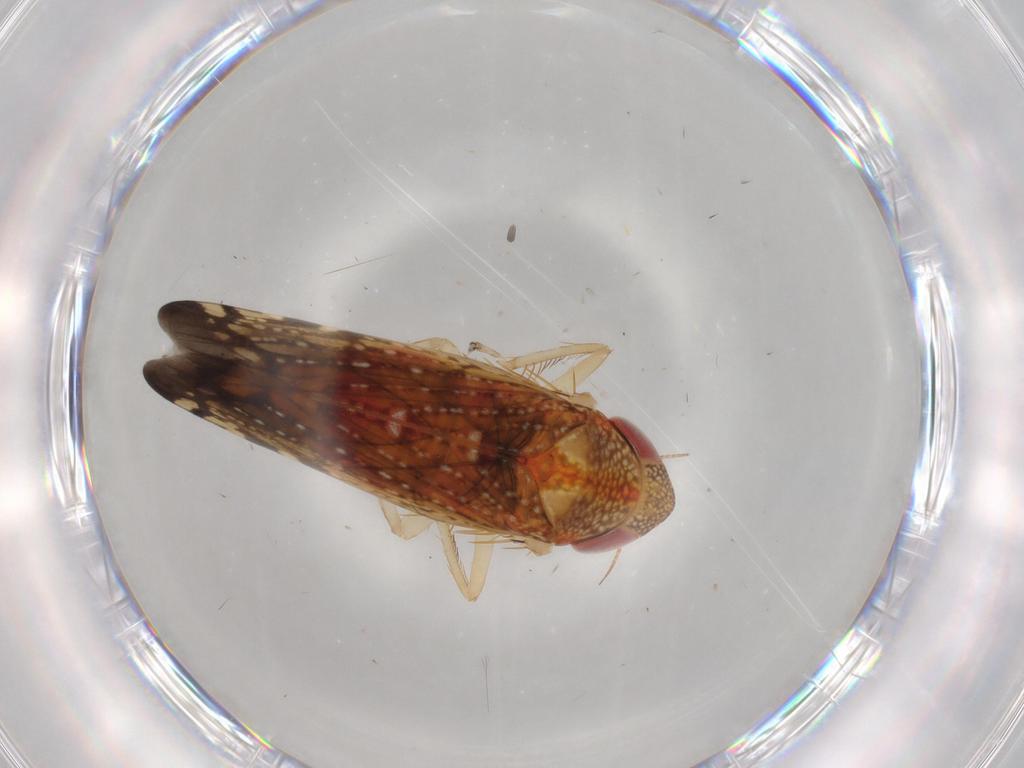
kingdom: Animalia
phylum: Arthropoda
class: Insecta
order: Hemiptera
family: Cicadellidae
